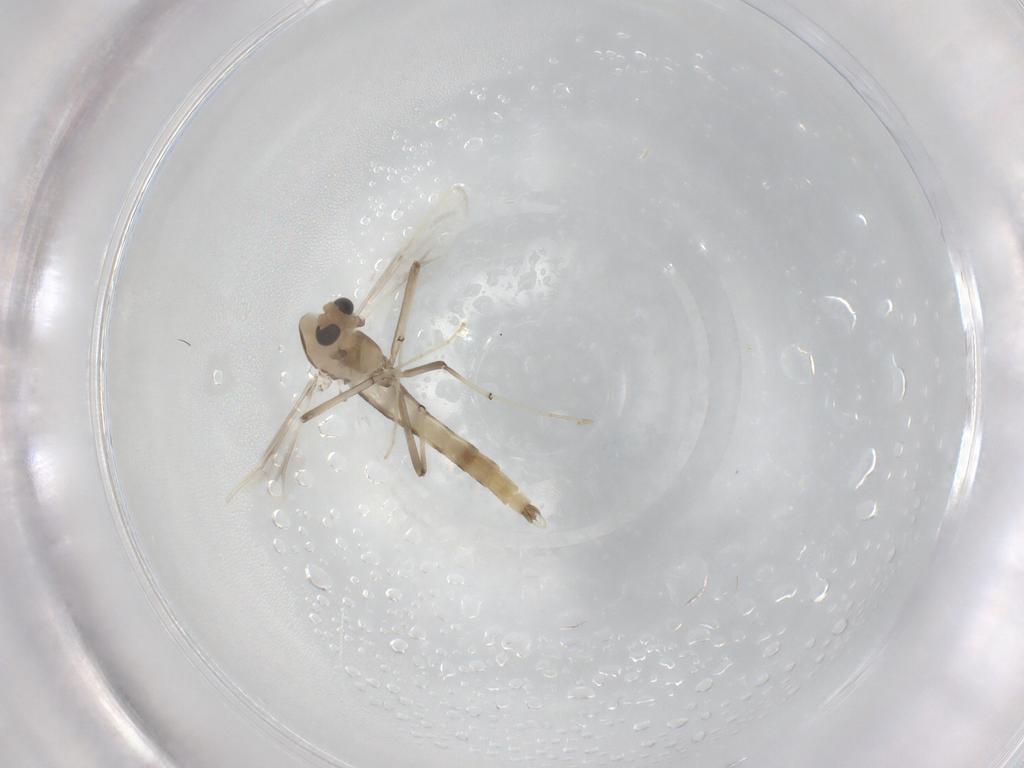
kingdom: Animalia
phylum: Arthropoda
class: Insecta
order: Diptera
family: Chironomidae
